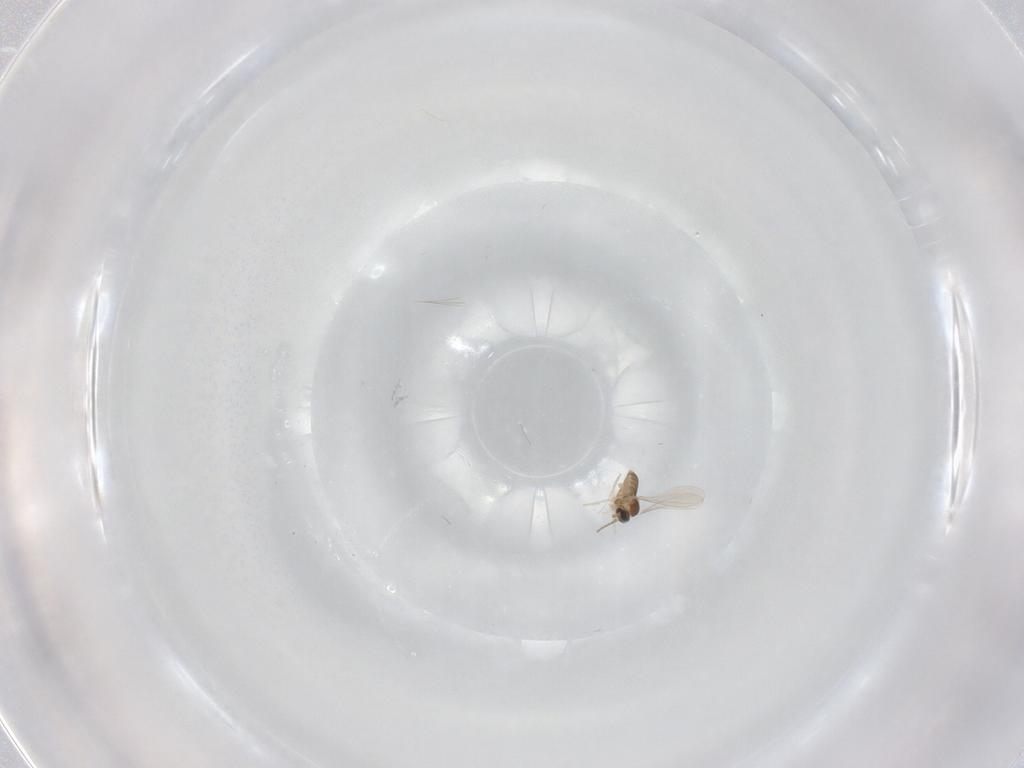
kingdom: Animalia
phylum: Arthropoda
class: Insecta
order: Diptera
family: Cecidomyiidae
